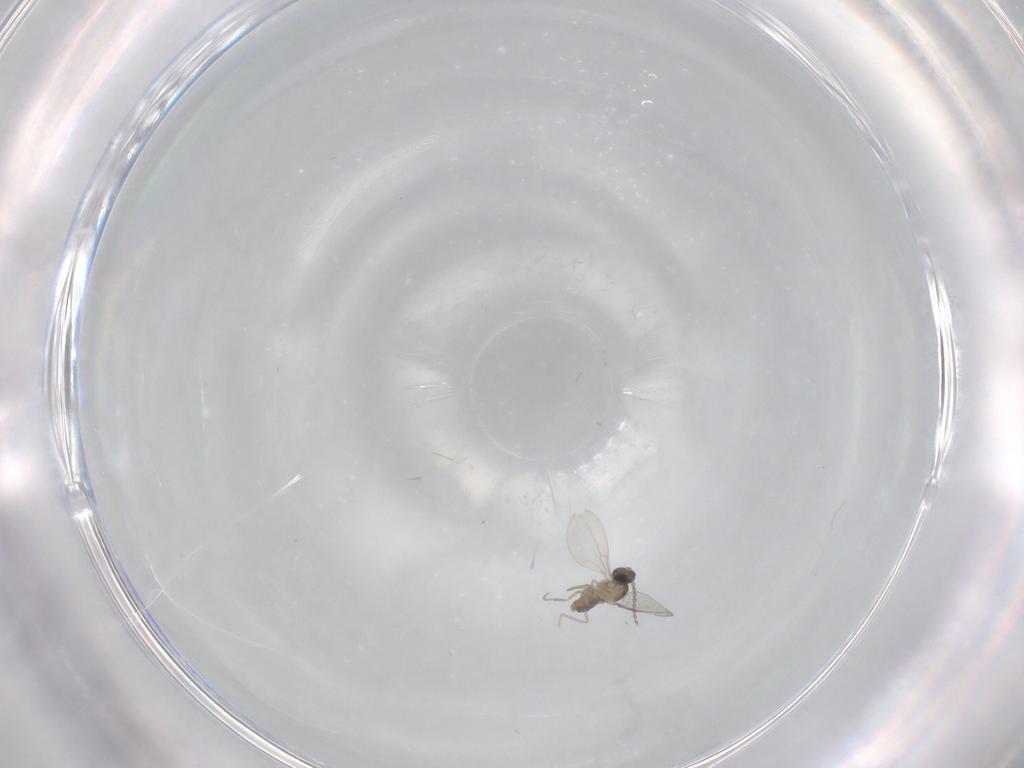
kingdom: Animalia
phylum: Arthropoda
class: Insecta
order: Diptera
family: Cecidomyiidae
